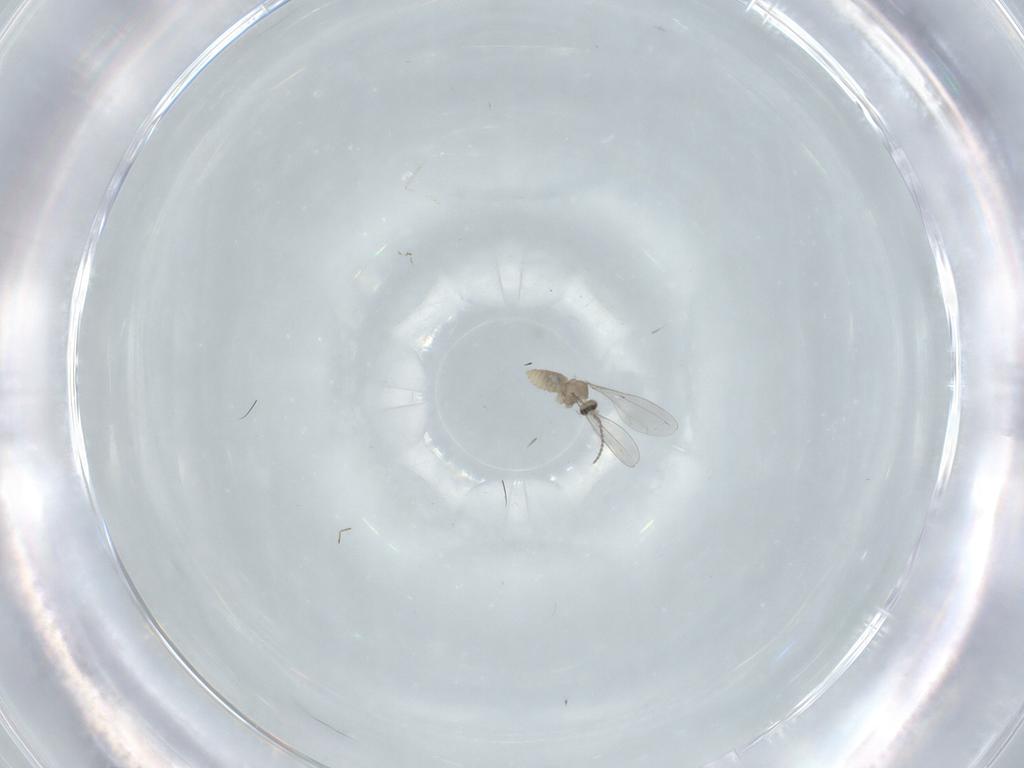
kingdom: Animalia
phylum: Arthropoda
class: Insecta
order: Diptera
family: Cecidomyiidae
